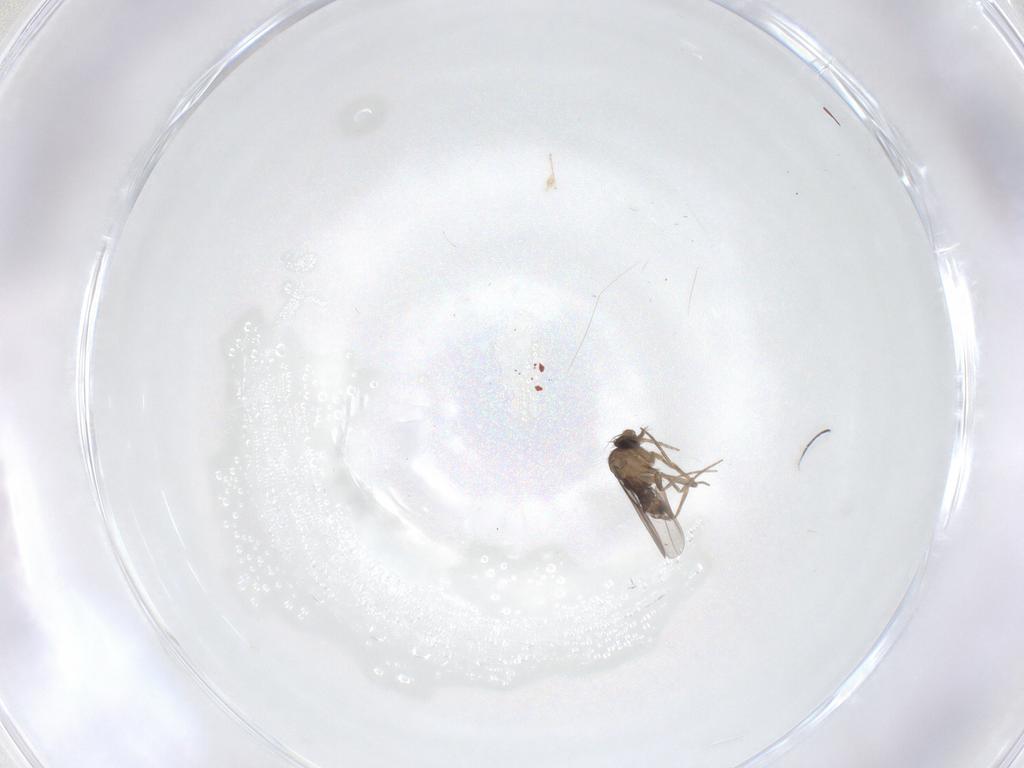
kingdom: Animalia
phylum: Arthropoda
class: Insecta
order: Diptera
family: Phoridae
